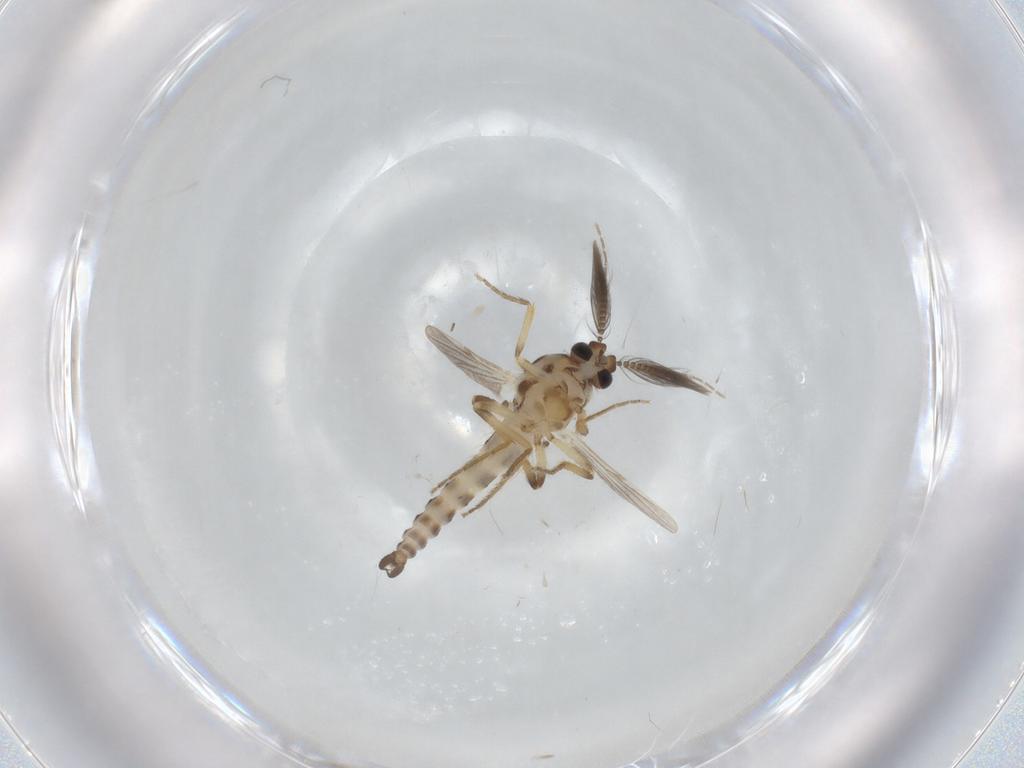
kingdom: Animalia
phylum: Arthropoda
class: Insecta
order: Diptera
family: Ceratopogonidae
